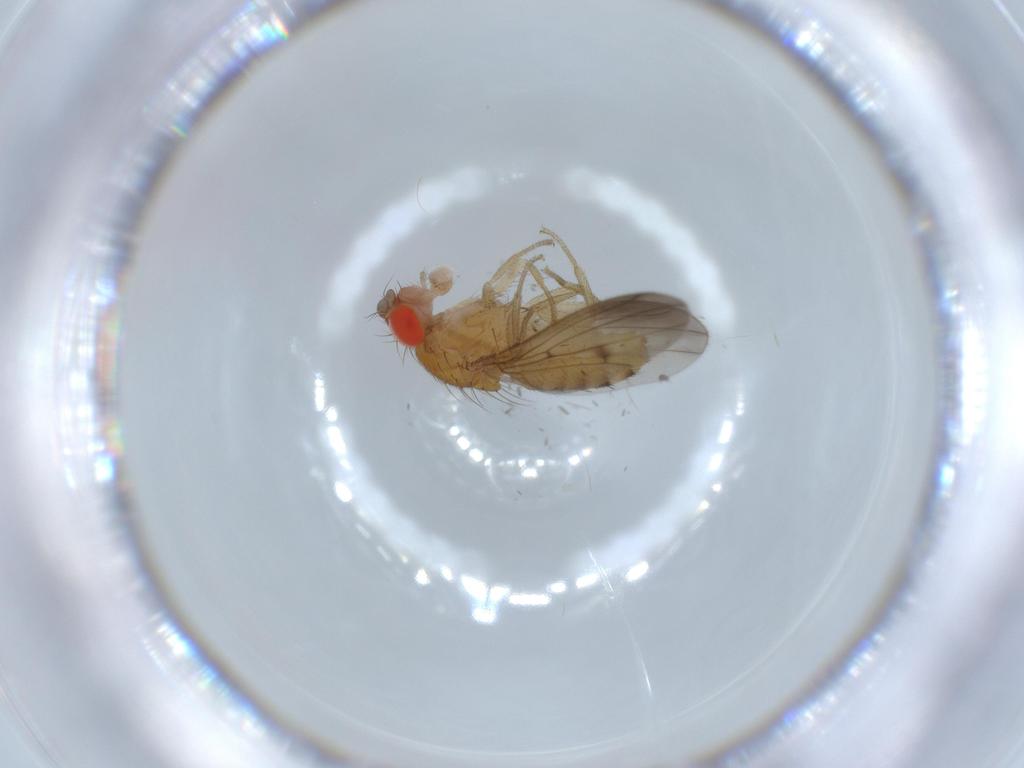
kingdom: Animalia
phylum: Arthropoda
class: Insecta
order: Diptera
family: Drosophilidae
